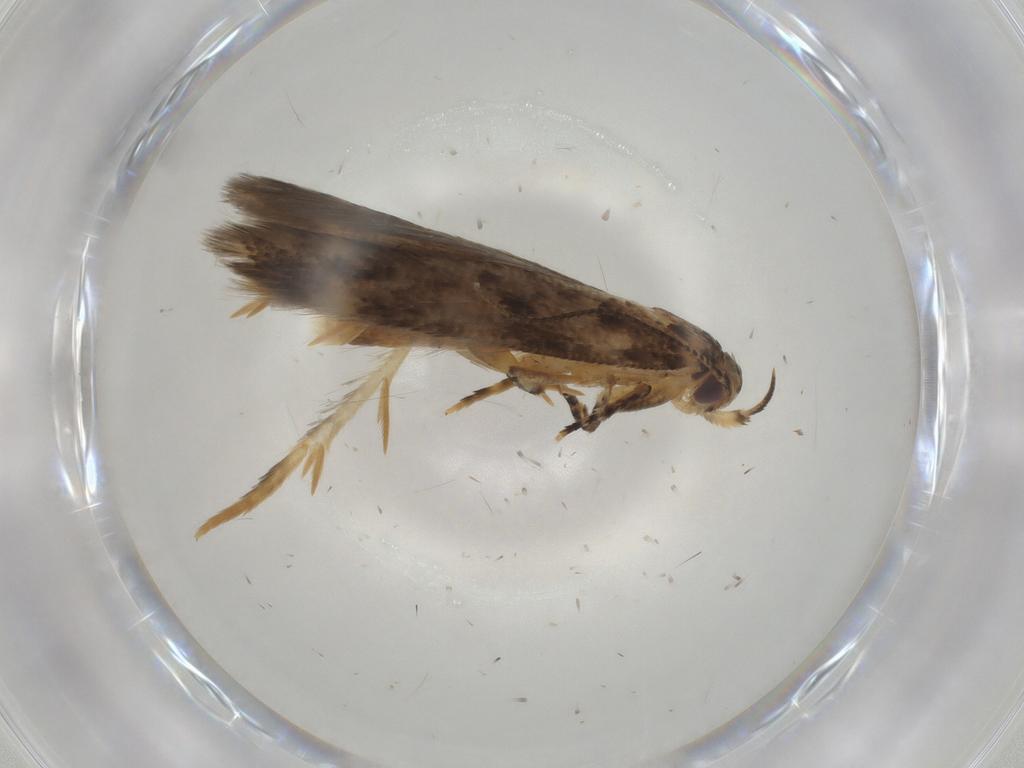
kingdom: Animalia
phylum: Arthropoda
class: Insecta
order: Lepidoptera
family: Cosmopterigidae
